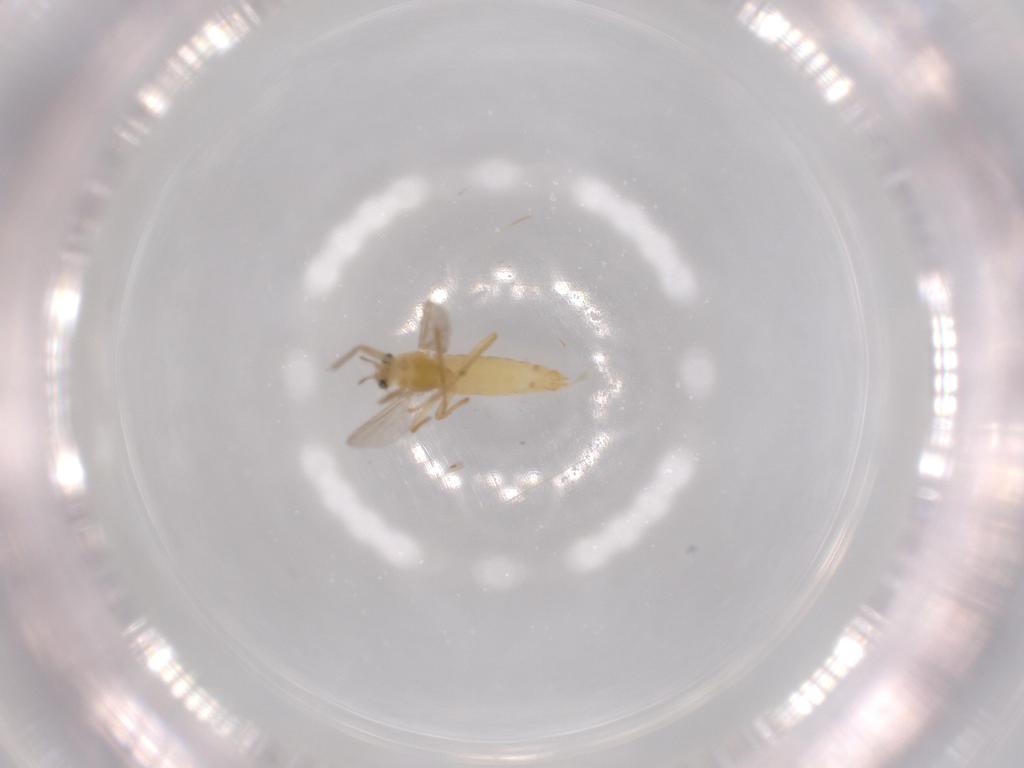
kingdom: Animalia
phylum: Arthropoda
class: Insecta
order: Diptera
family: Chironomidae
